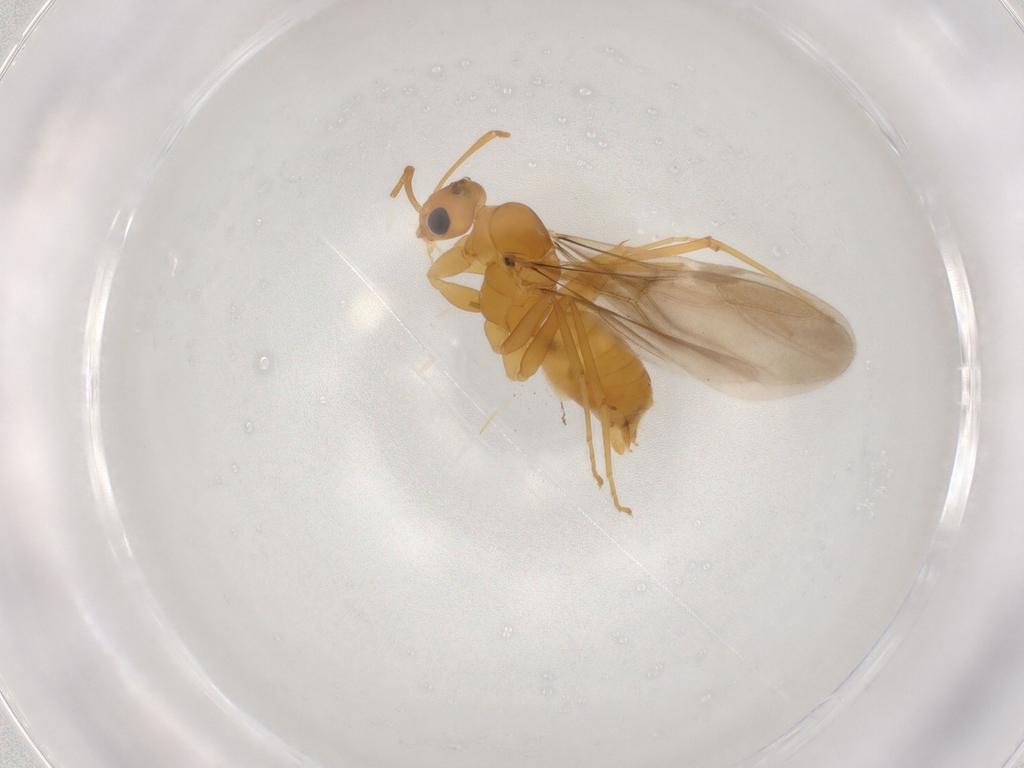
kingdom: Animalia
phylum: Arthropoda
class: Insecta
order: Hymenoptera
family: Formicidae
